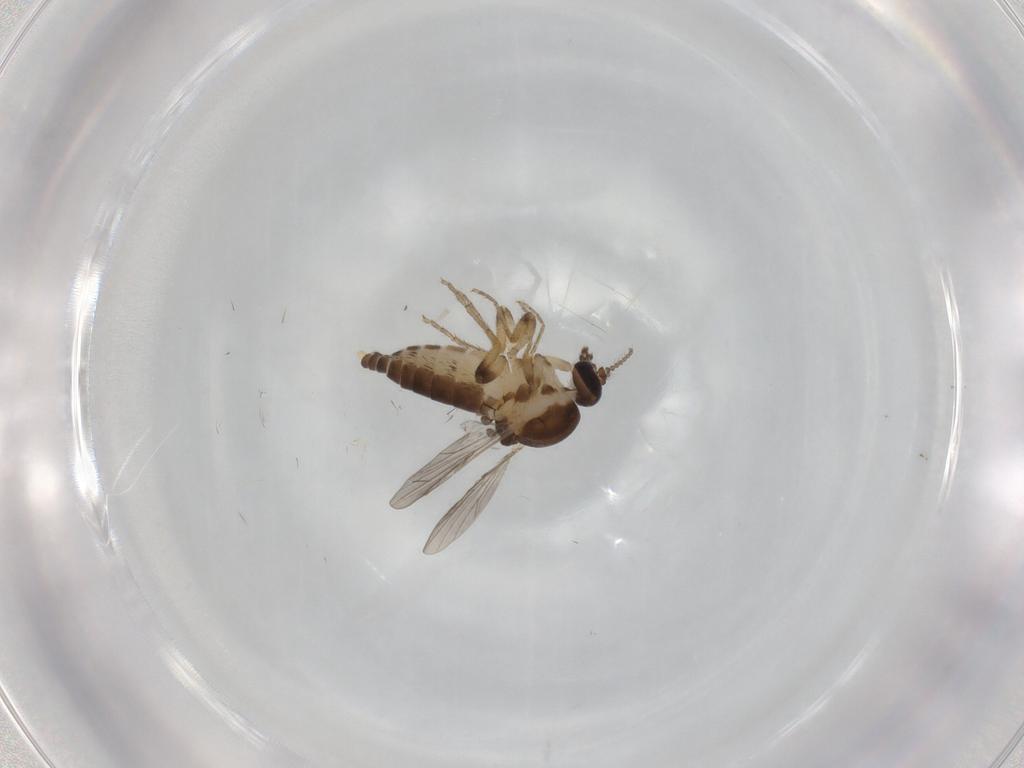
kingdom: Animalia
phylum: Arthropoda
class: Insecta
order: Diptera
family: Ceratopogonidae
